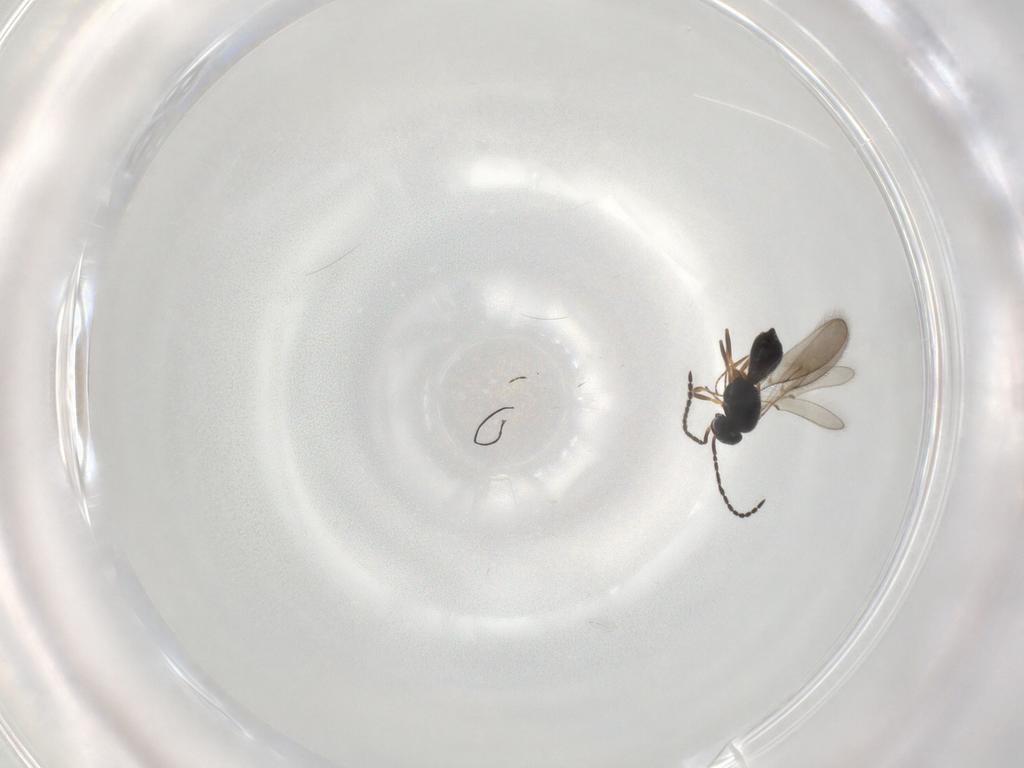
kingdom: Animalia
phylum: Arthropoda
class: Insecta
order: Hymenoptera
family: Scelionidae
